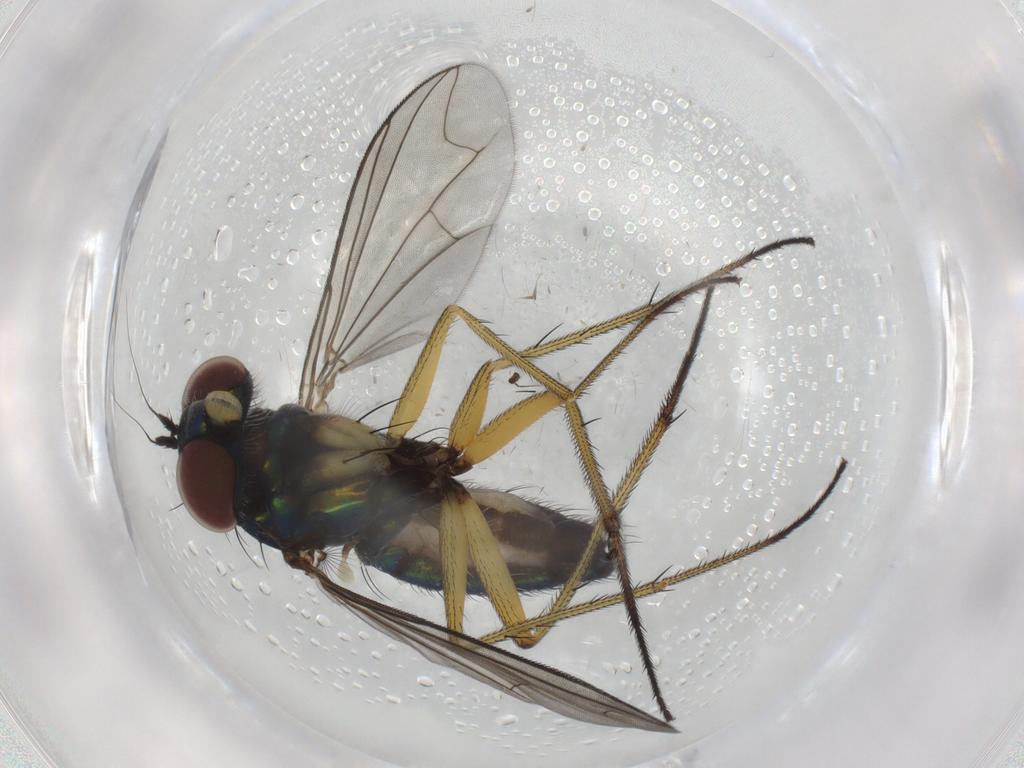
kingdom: Animalia
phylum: Arthropoda
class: Insecta
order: Diptera
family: Dolichopodidae
